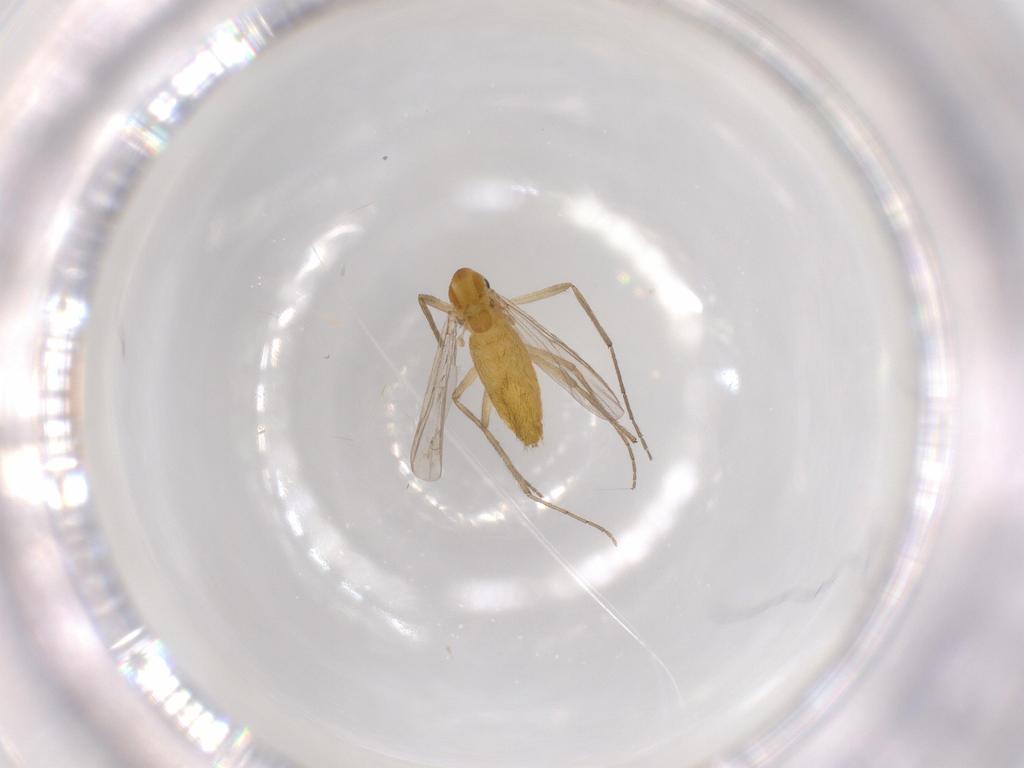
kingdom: Animalia
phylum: Arthropoda
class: Insecta
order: Diptera
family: Chironomidae
